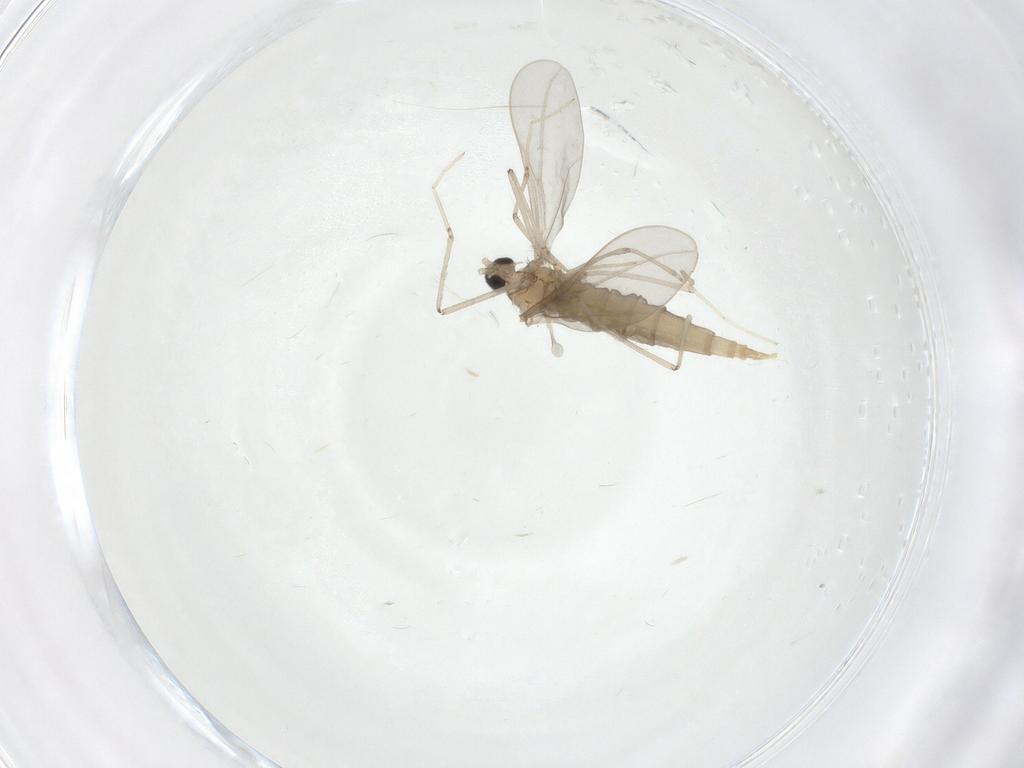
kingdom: Animalia
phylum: Arthropoda
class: Insecta
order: Diptera
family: Cecidomyiidae
